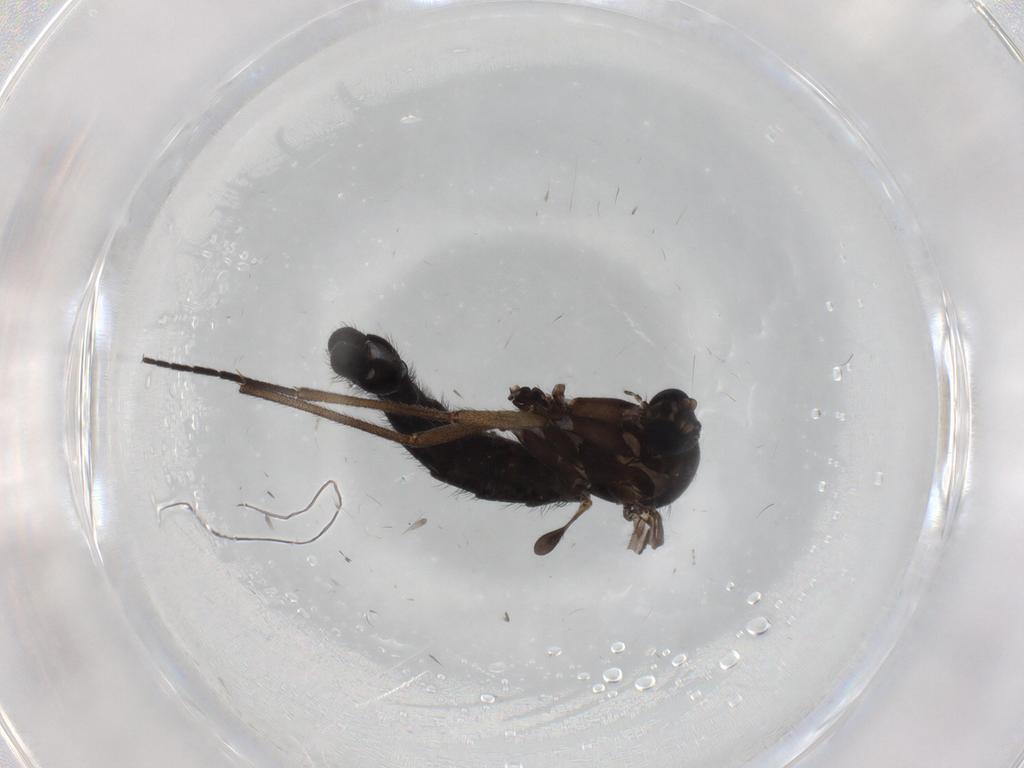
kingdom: Animalia
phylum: Arthropoda
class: Insecta
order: Diptera
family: Sciaridae
